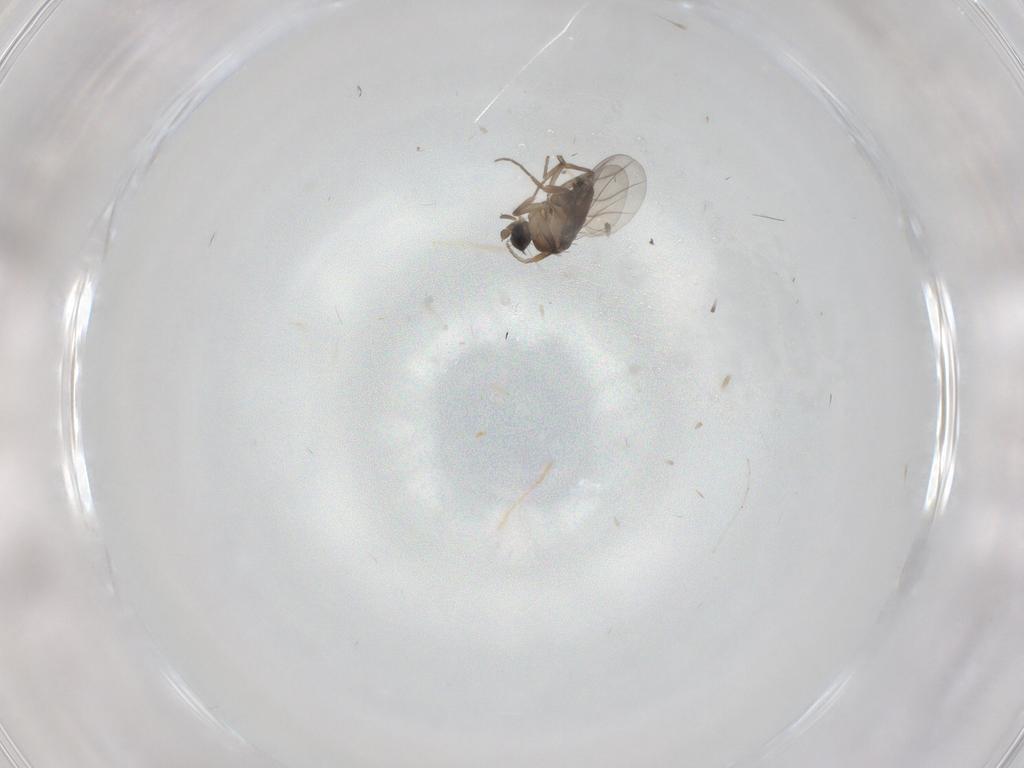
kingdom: Animalia
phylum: Arthropoda
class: Insecta
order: Diptera
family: Phoridae
